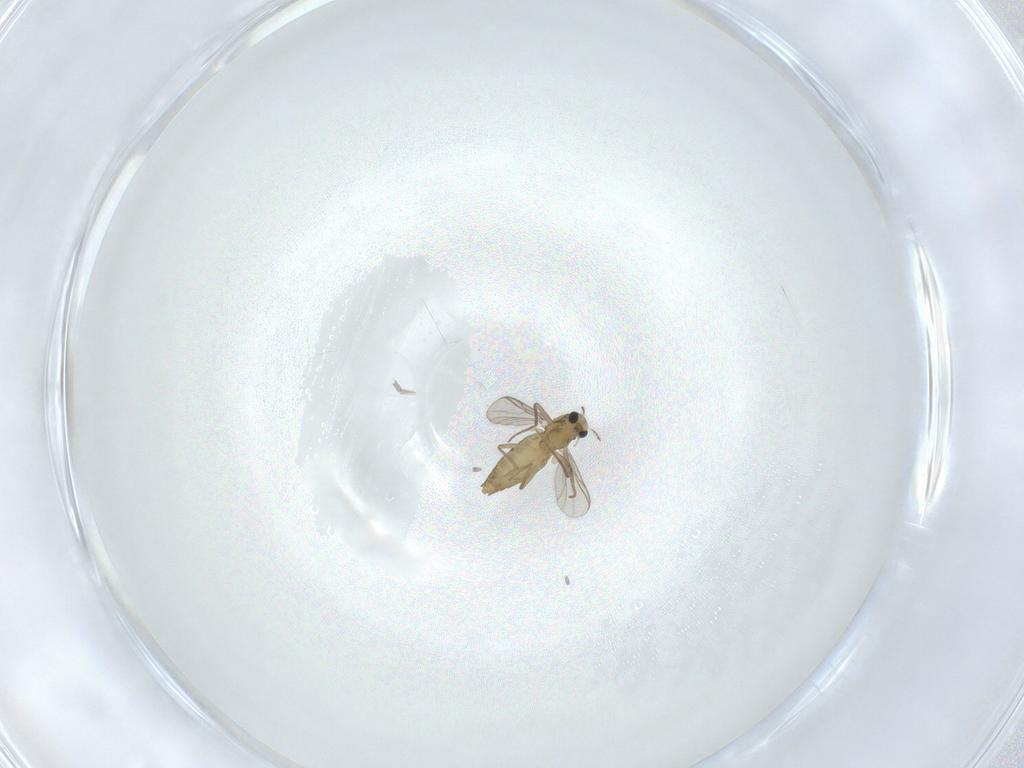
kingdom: Animalia
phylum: Arthropoda
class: Insecta
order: Diptera
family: Chironomidae
